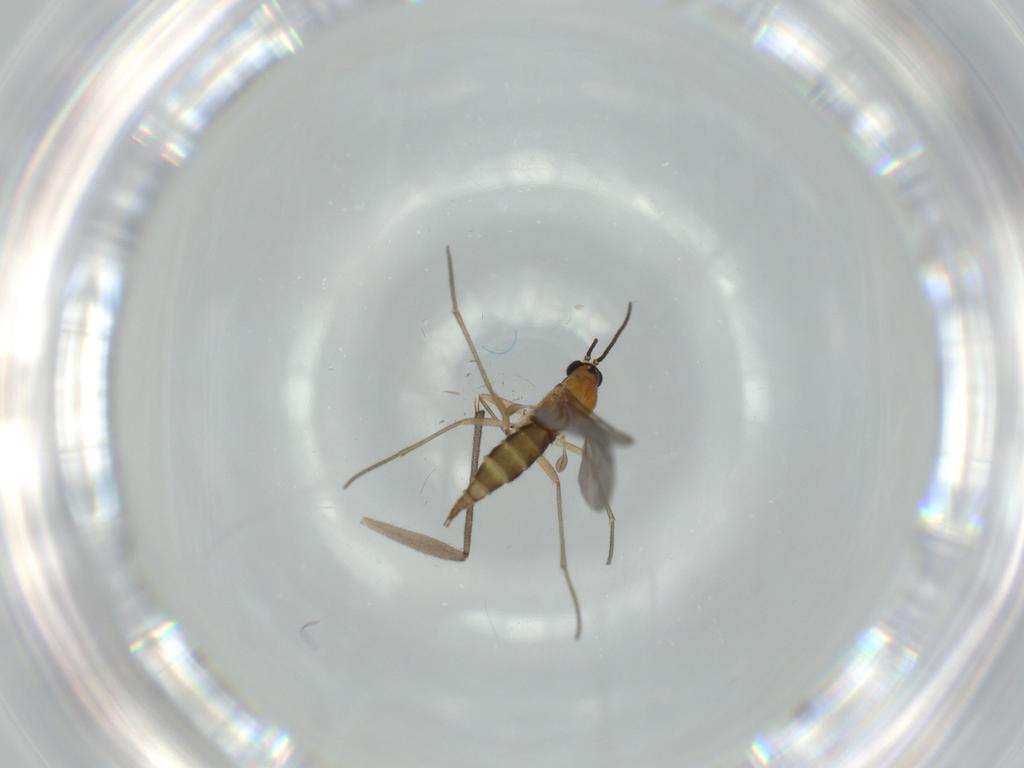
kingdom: Animalia
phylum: Arthropoda
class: Insecta
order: Diptera
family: Sciaridae
